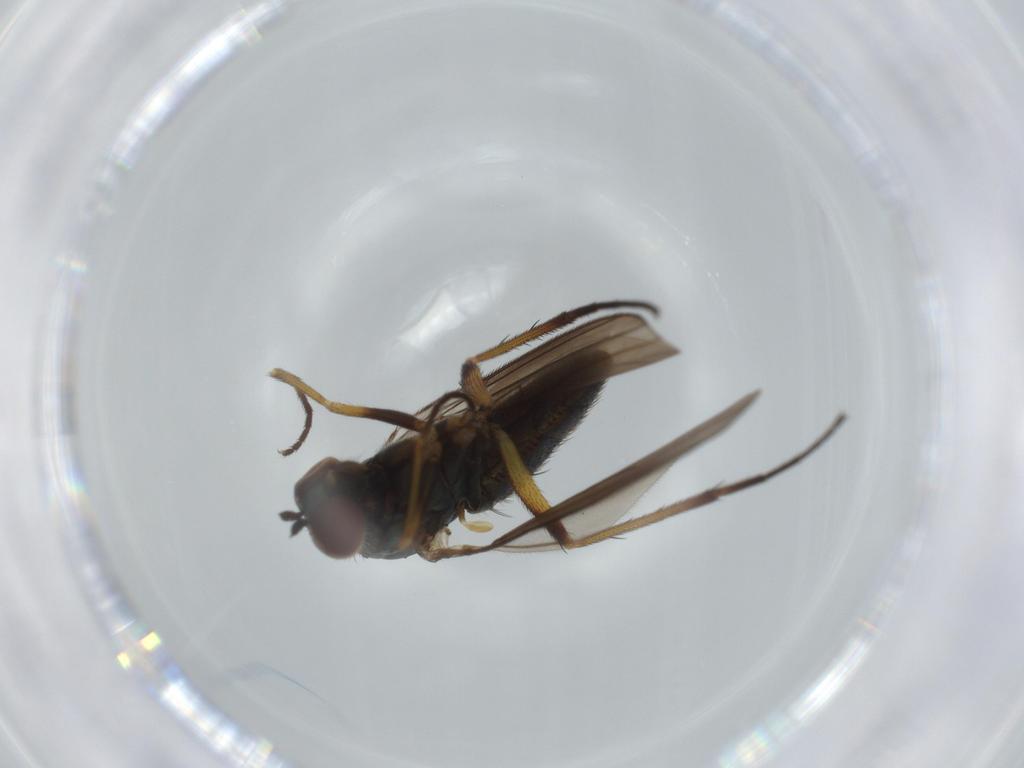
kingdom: Animalia
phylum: Arthropoda
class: Insecta
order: Diptera
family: Dolichopodidae
